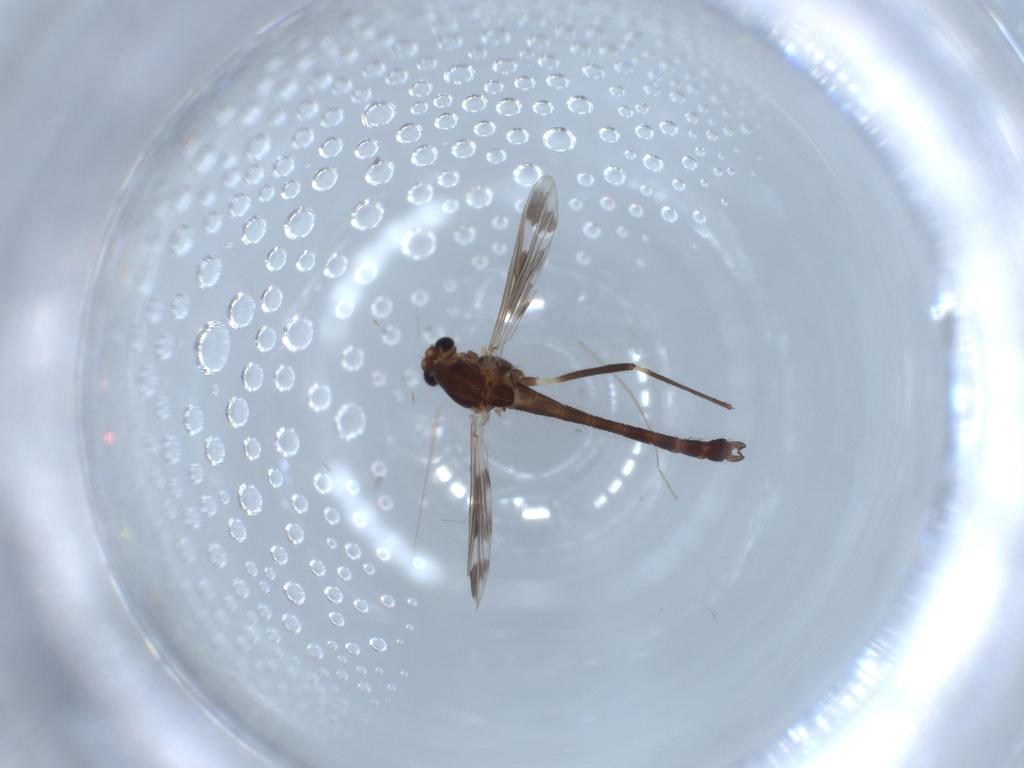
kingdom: Animalia
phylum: Arthropoda
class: Insecta
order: Diptera
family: Chironomidae
